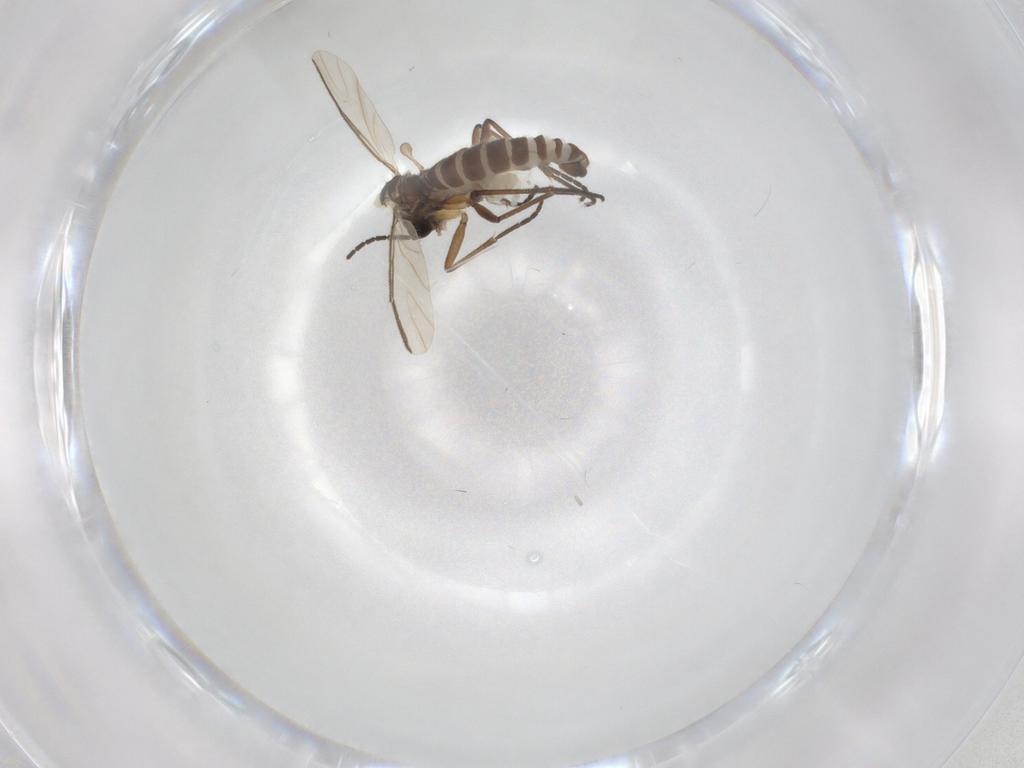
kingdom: Animalia
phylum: Arthropoda
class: Insecta
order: Diptera
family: Sciaridae
